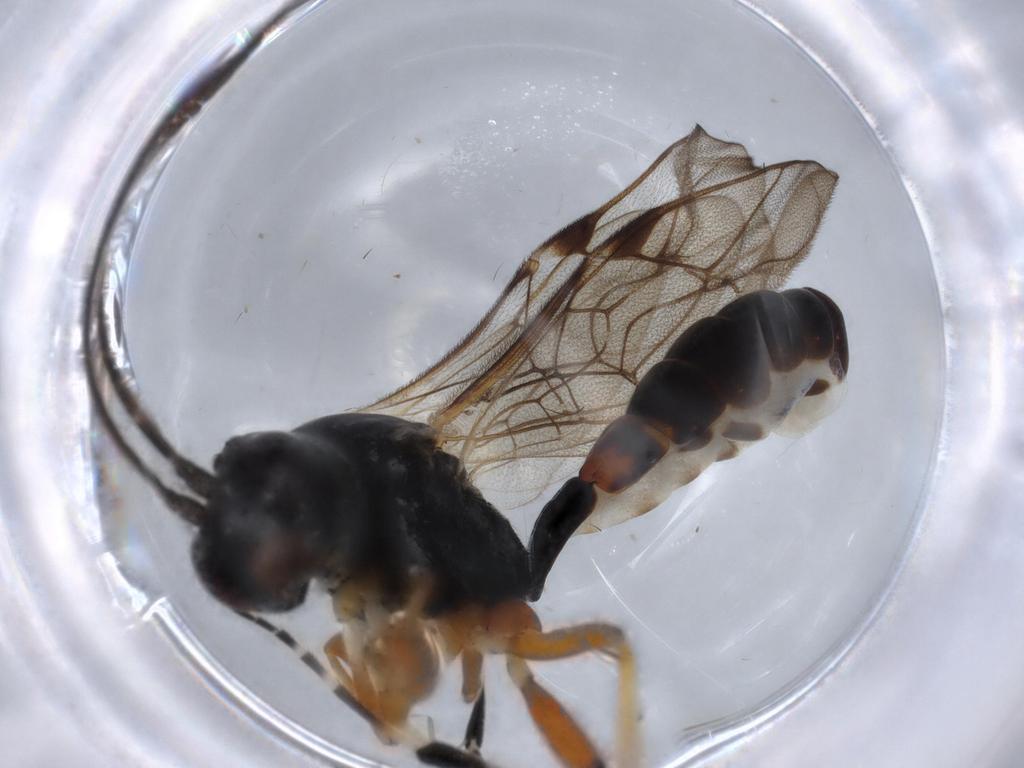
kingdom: Animalia
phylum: Arthropoda
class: Insecta
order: Hymenoptera
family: Ichneumonidae
